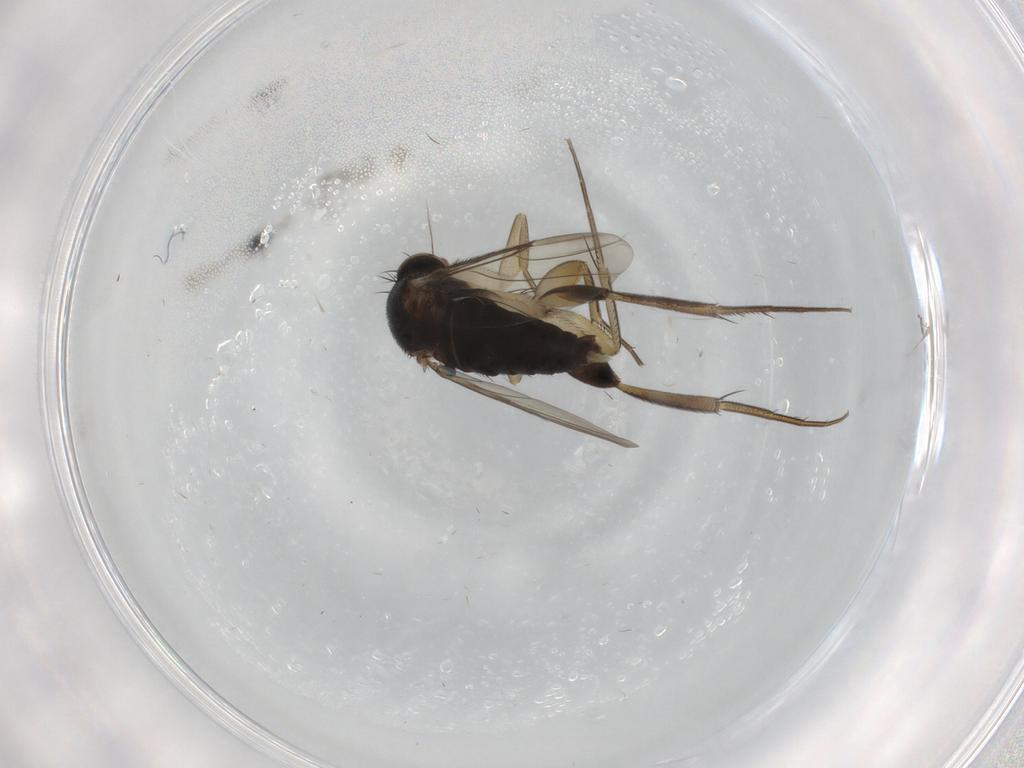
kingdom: Animalia
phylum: Arthropoda
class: Insecta
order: Diptera
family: Phoridae
